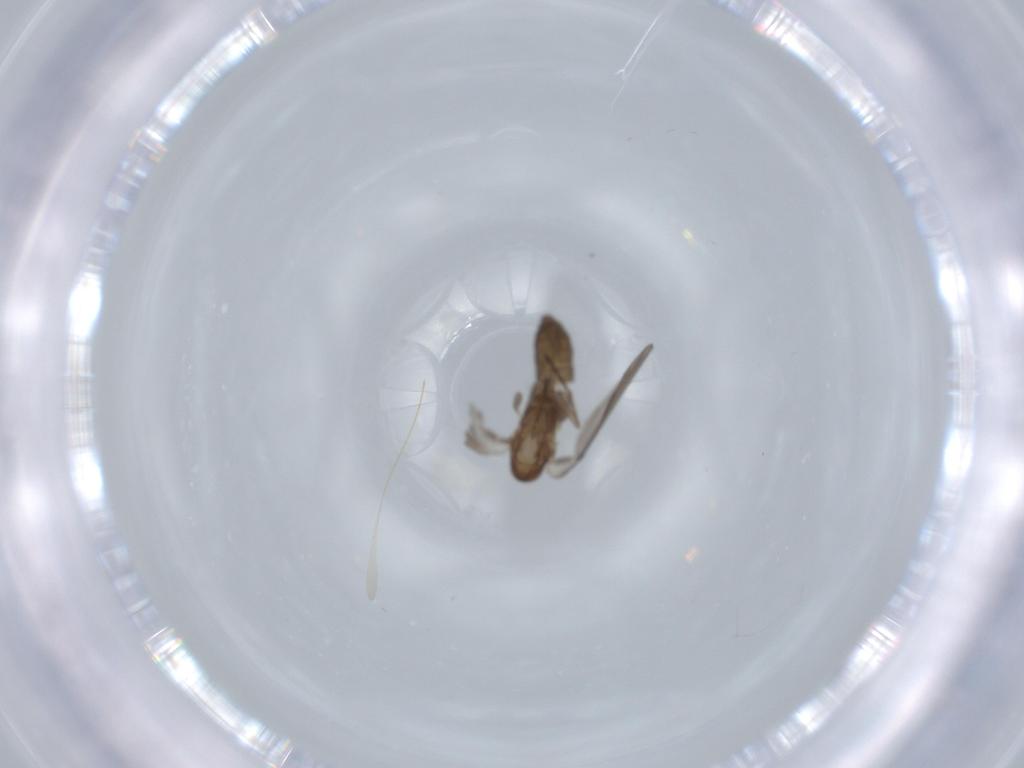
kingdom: Animalia
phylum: Arthropoda
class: Insecta
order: Diptera
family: Psychodidae
